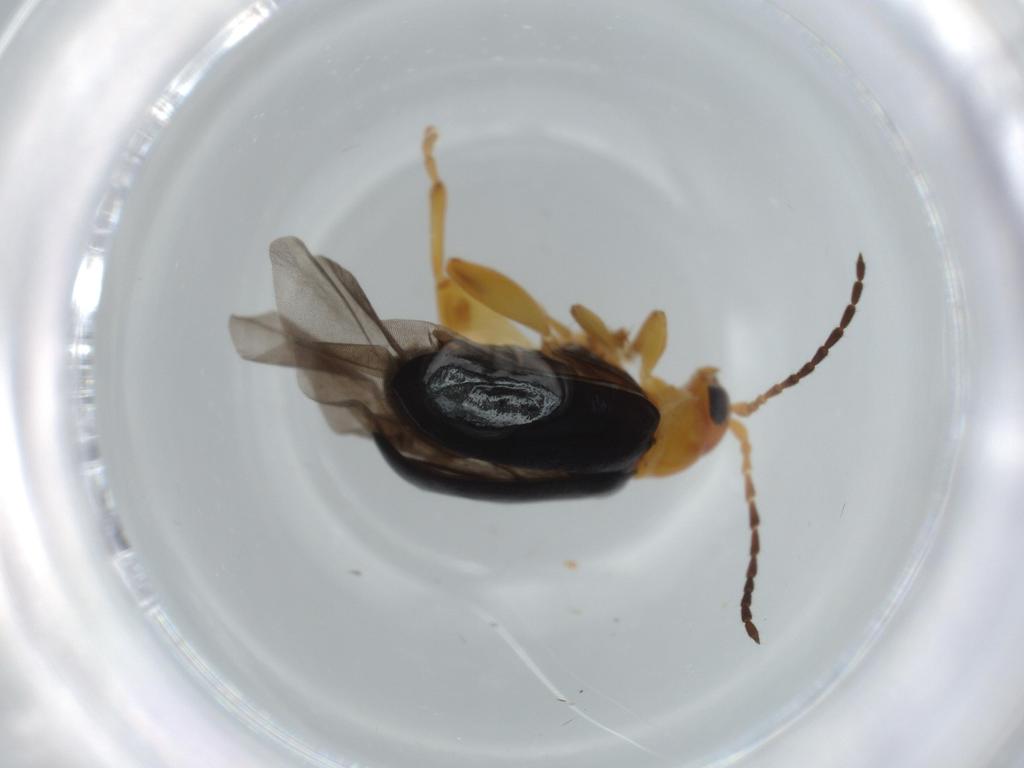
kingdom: Animalia
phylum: Arthropoda
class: Insecta
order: Coleoptera
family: Chrysomelidae
